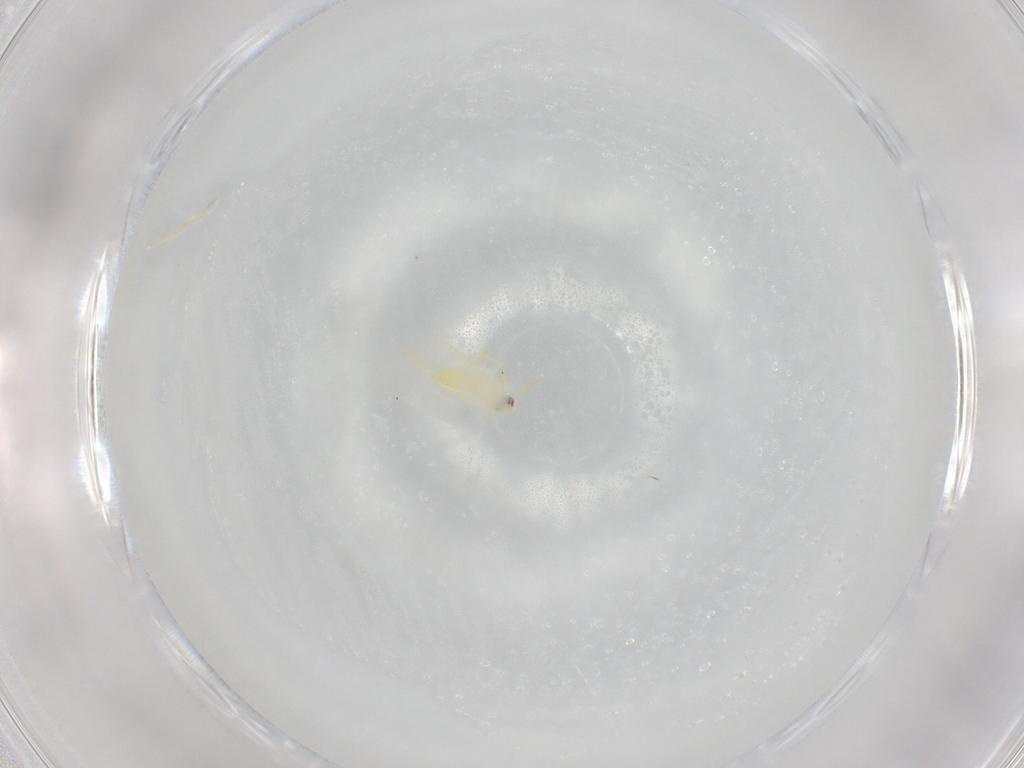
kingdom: Animalia
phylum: Arthropoda
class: Insecta
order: Hemiptera
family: Aleyrodidae
